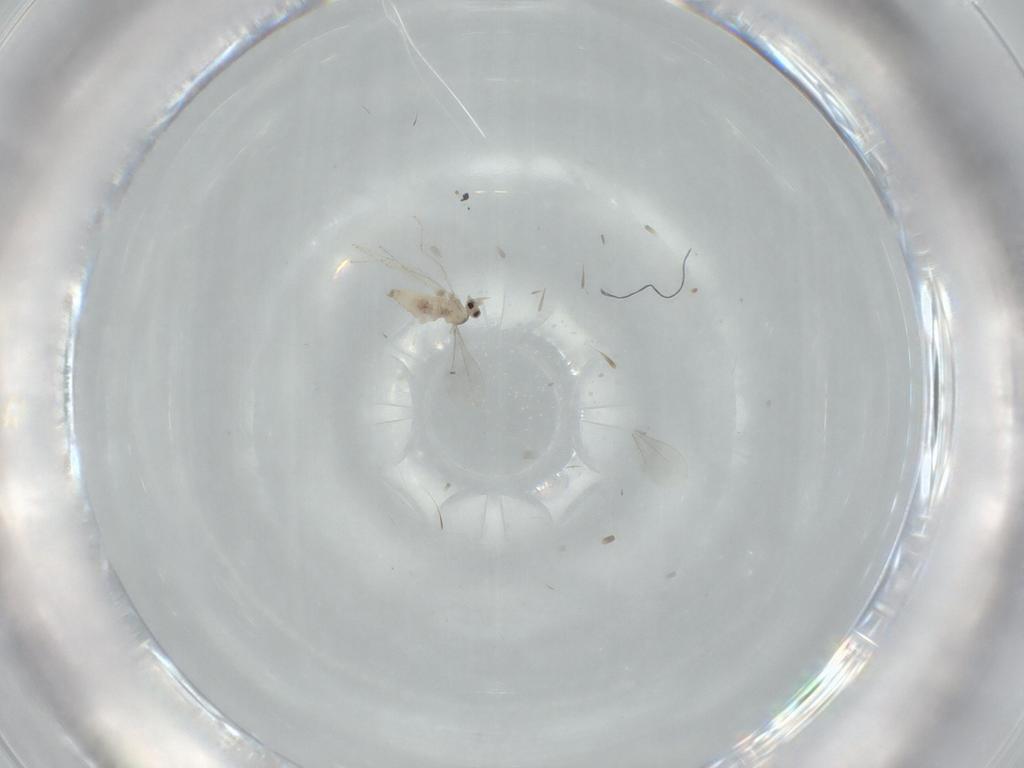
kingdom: Animalia
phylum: Arthropoda
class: Insecta
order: Diptera
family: Cecidomyiidae
